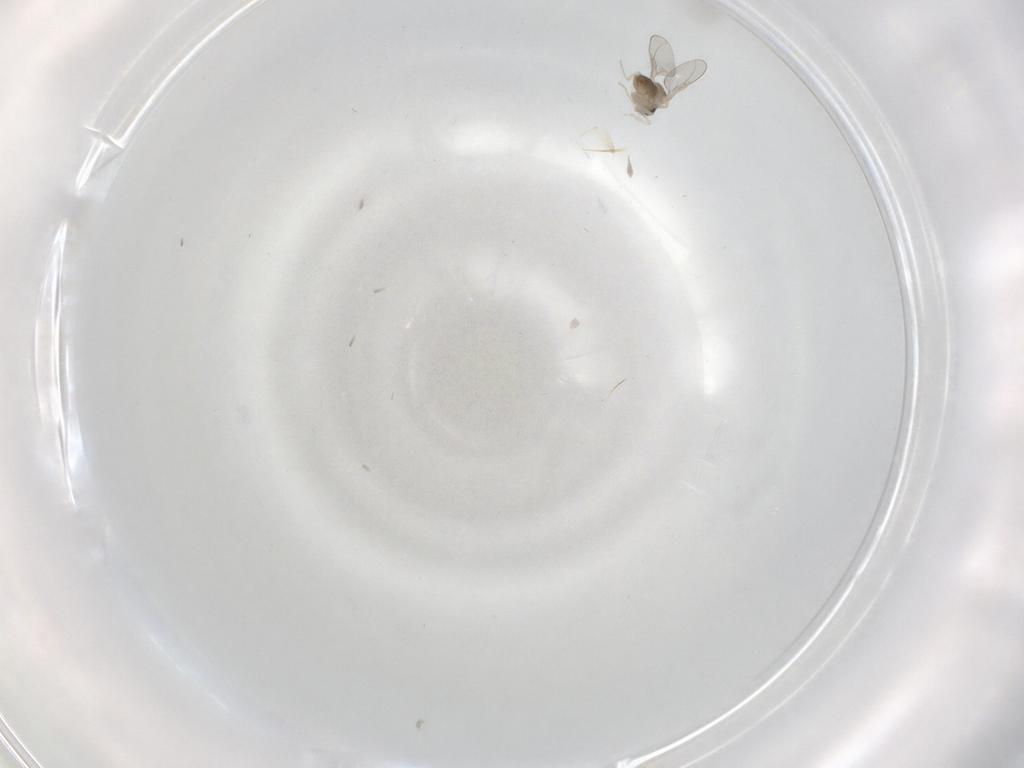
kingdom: Animalia
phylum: Arthropoda
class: Insecta
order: Diptera
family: Cecidomyiidae
